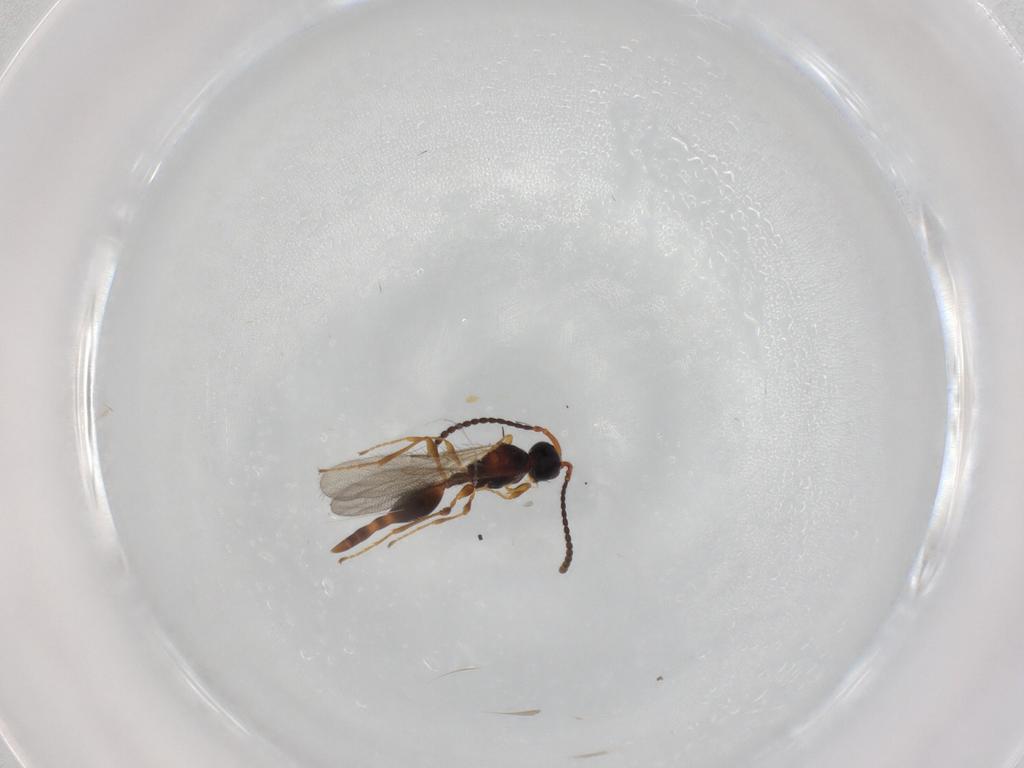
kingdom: Animalia
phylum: Arthropoda
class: Insecta
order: Hymenoptera
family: Diapriidae
